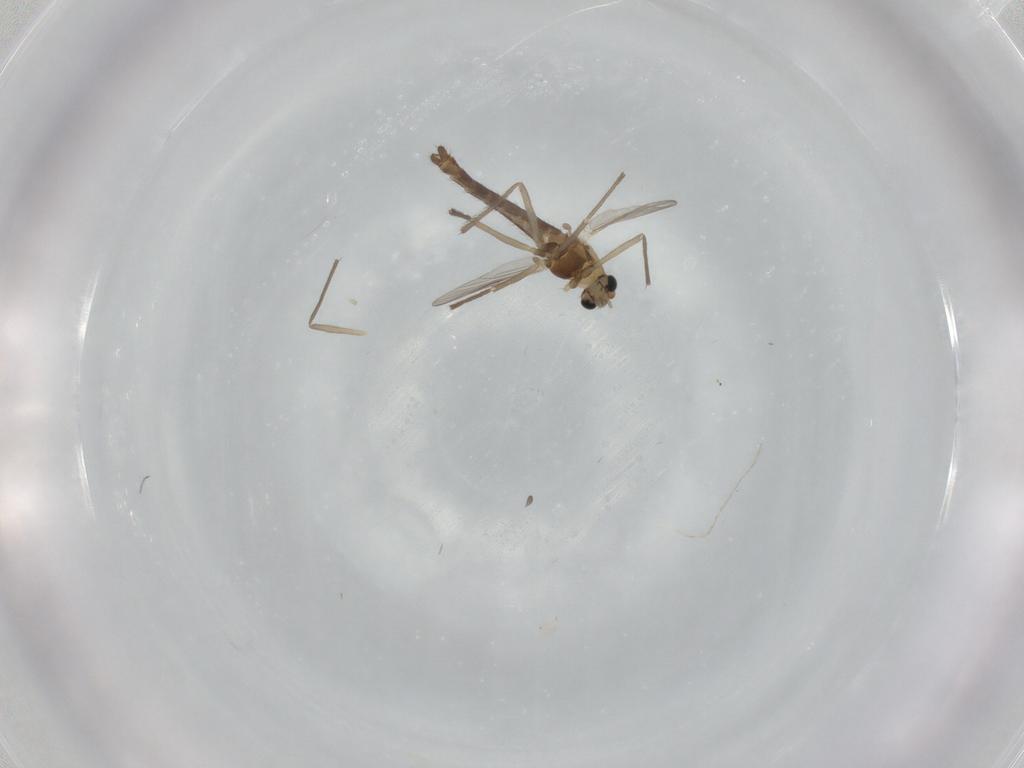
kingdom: Animalia
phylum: Arthropoda
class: Insecta
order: Diptera
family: Chironomidae
